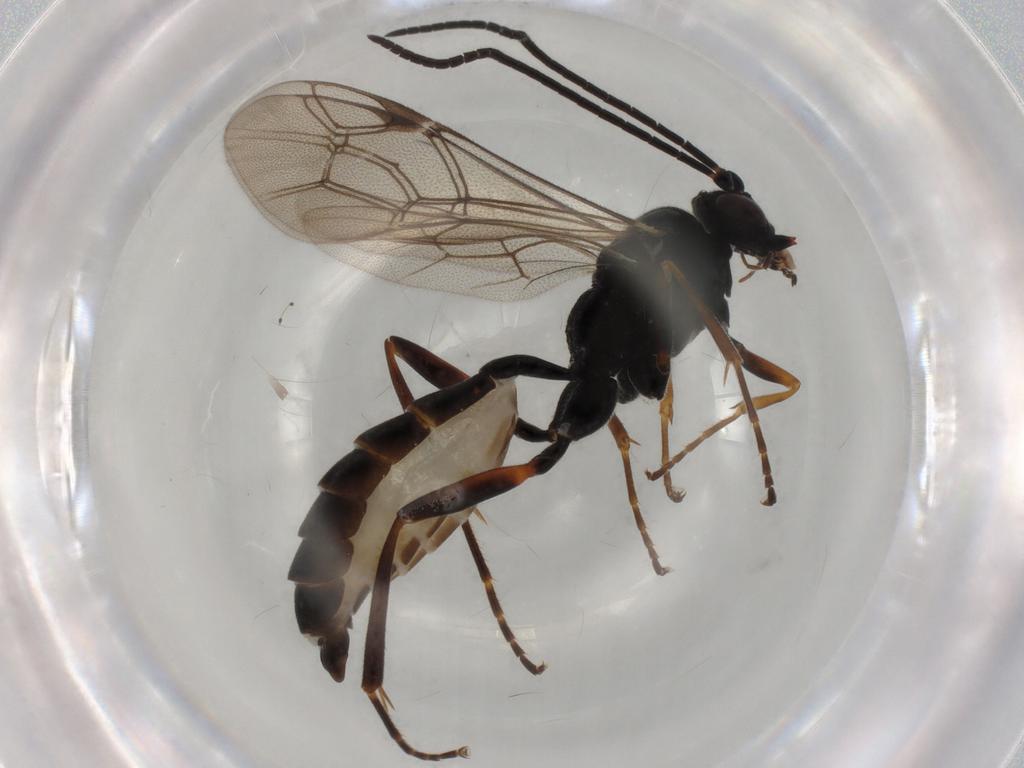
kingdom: Animalia
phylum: Arthropoda
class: Insecta
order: Hymenoptera
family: Ichneumonidae
